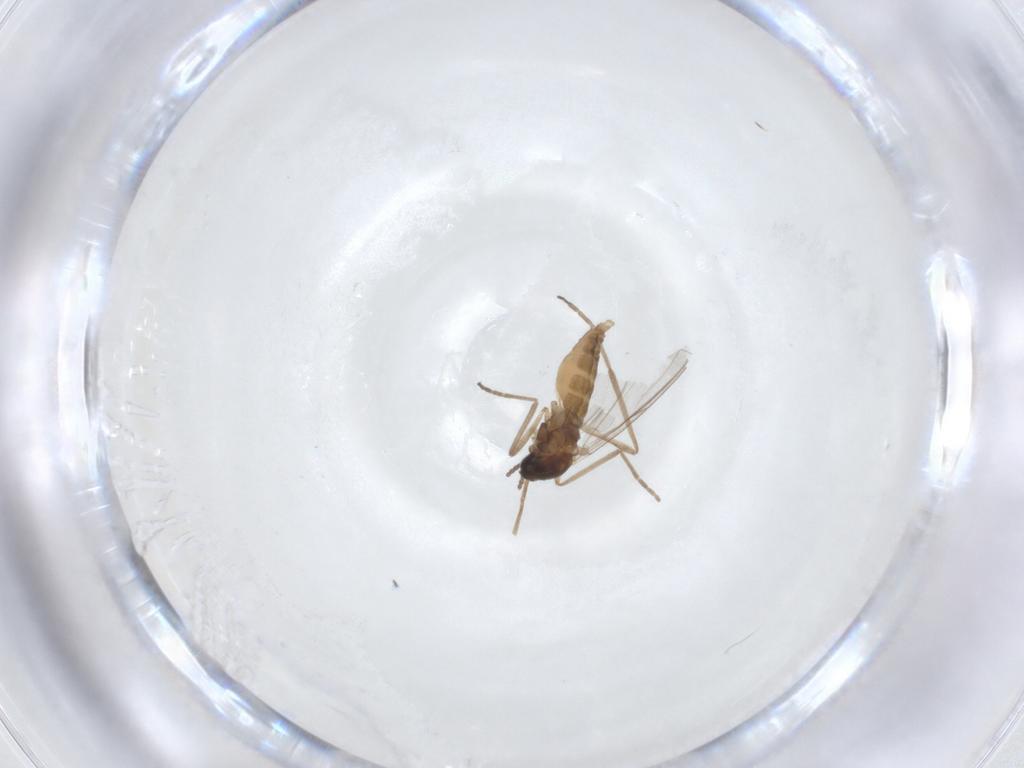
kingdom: Animalia
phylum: Arthropoda
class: Insecta
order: Diptera
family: Cecidomyiidae
